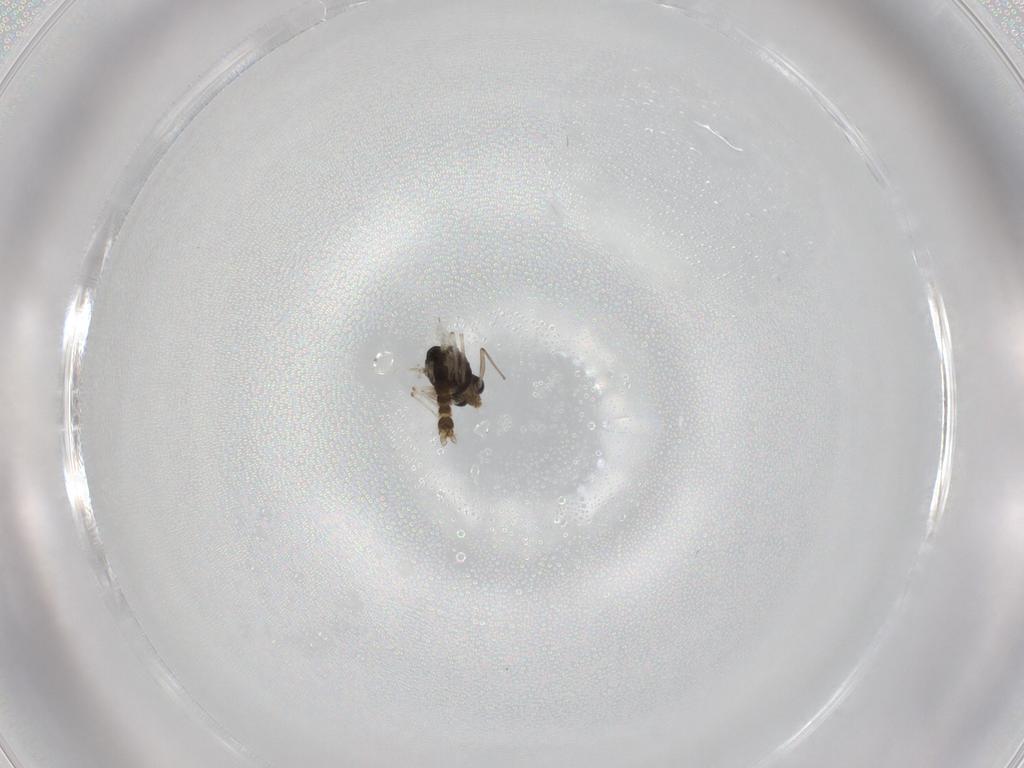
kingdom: Animalia
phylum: Arthropoda
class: Insecta
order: Diptera
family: Chironomidae
